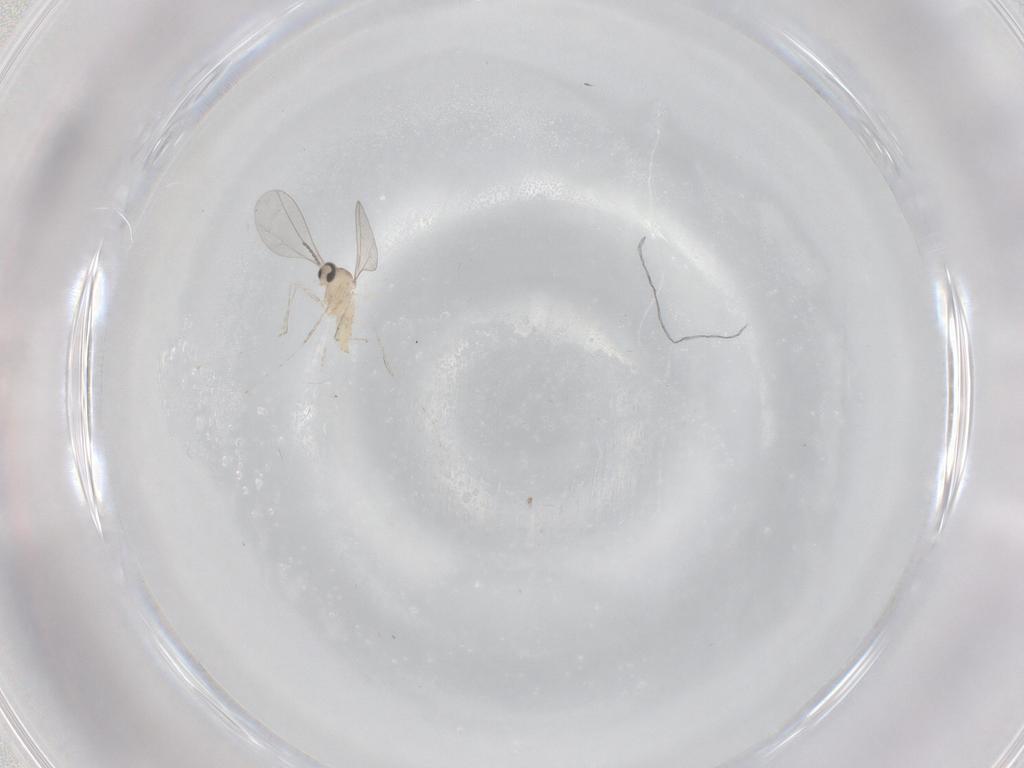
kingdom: Animalia
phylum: Arthropoda
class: Insecta
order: Diptera
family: Cecidomyiidae
